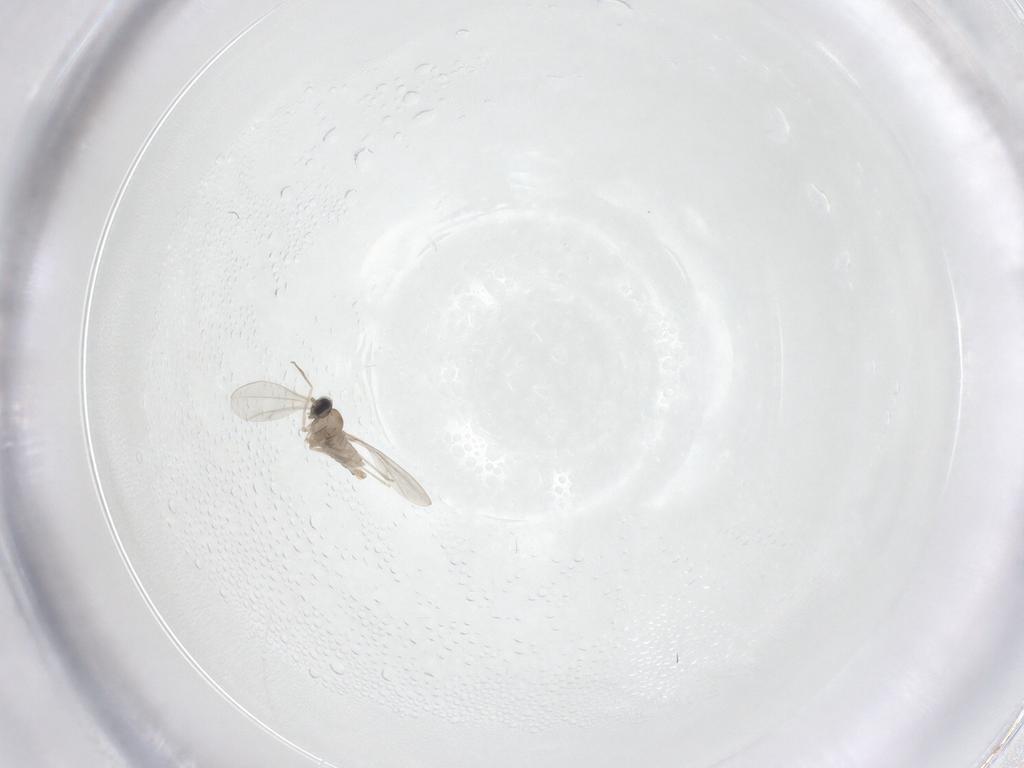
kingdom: Animalia
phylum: Arthropoda
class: Insecta
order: Diptera
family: Cecidomyiidae
